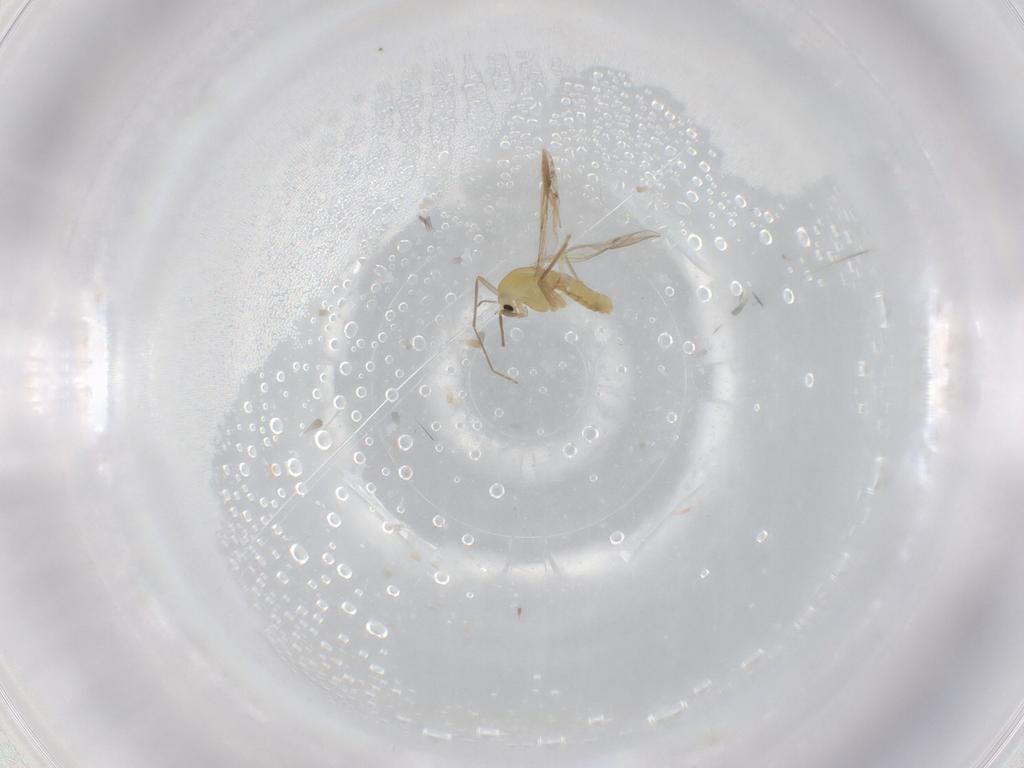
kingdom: Animalia
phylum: Arthropoda
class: Insecta
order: Diptera
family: Chironomidae
